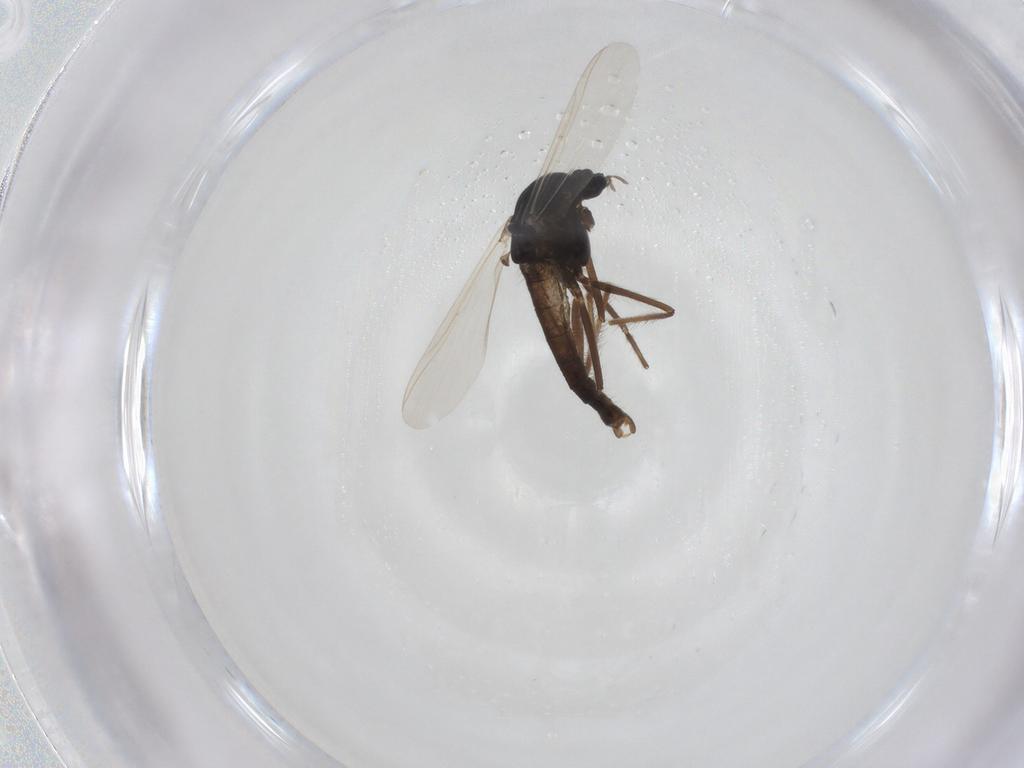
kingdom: Animalia
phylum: Arthropoda
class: Insecta
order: Diptera
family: Chironomidae
